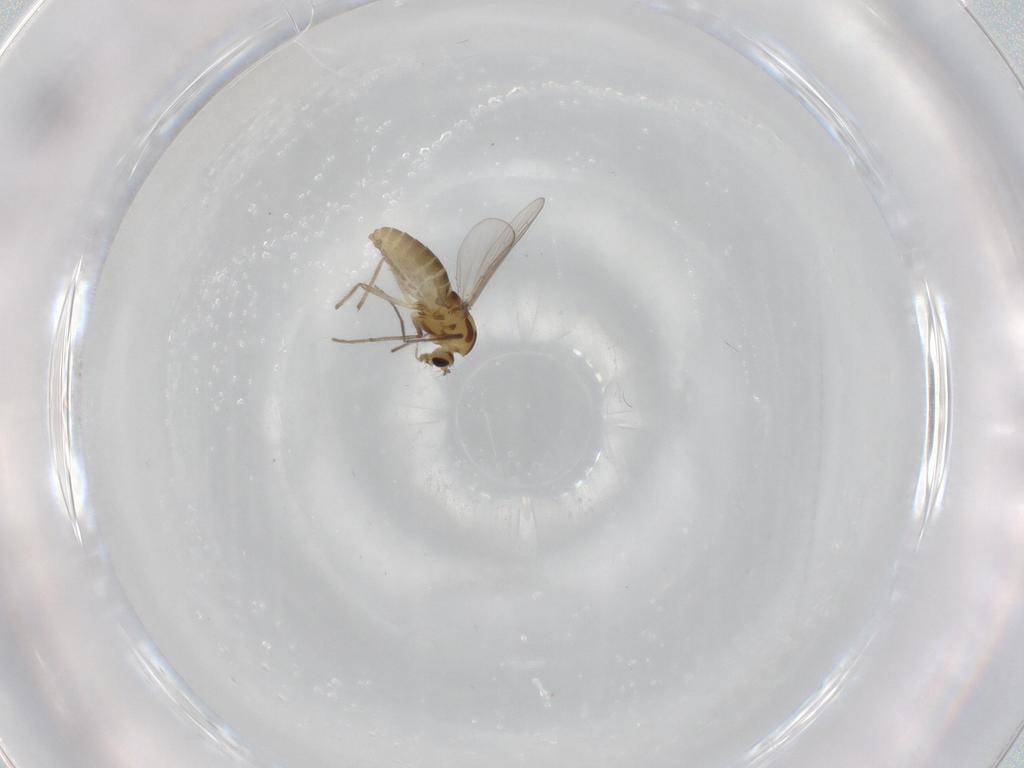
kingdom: Animalia
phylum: Arthropoda
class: Insecta
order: Diptera
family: Chironomidae
